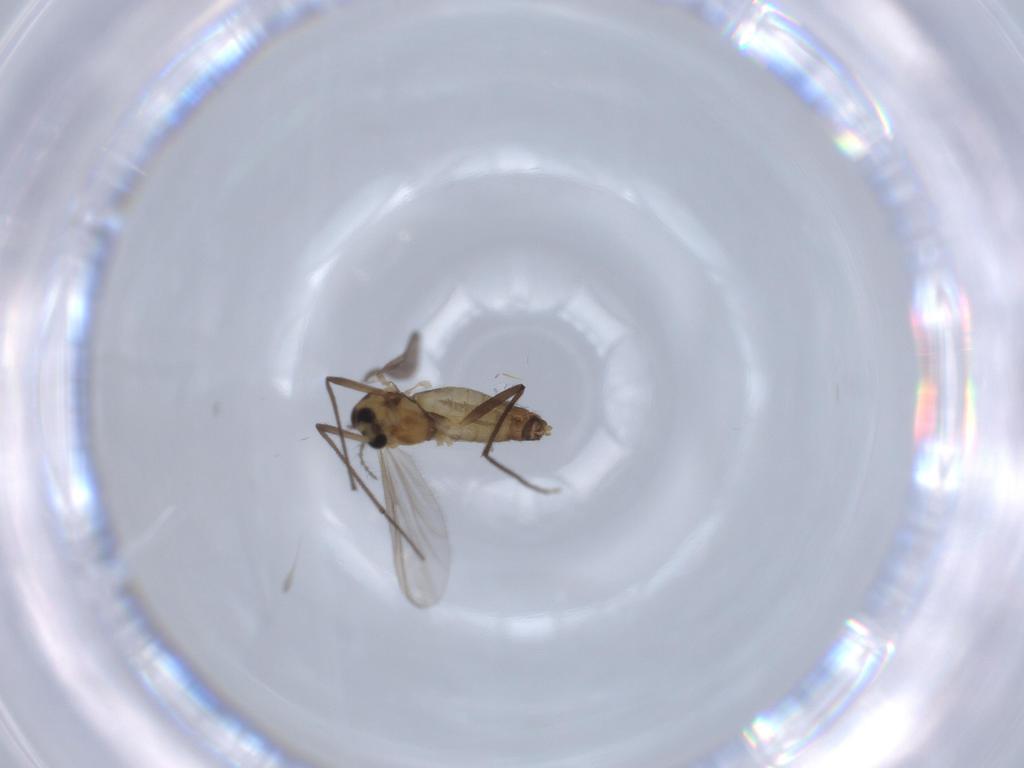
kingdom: Animalia
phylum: Arthropoda
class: Insecta
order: Diptera
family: Chironomidae
